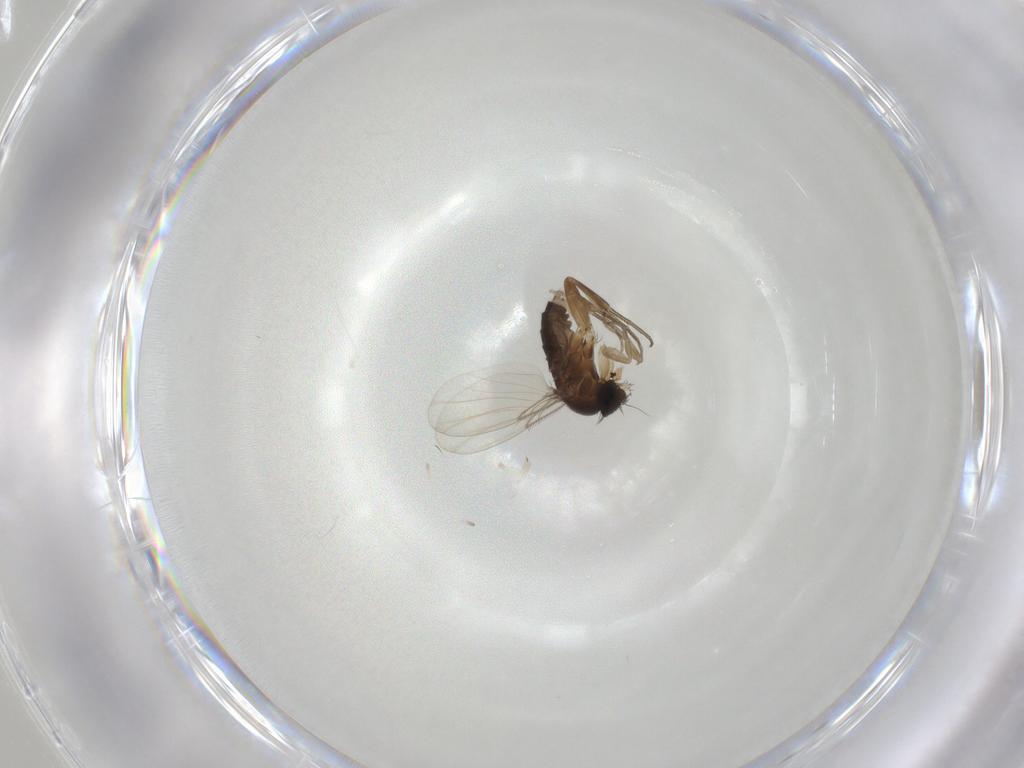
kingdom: Animalia
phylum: Arthropoda
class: Insecta
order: Diptera
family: Phoridae
